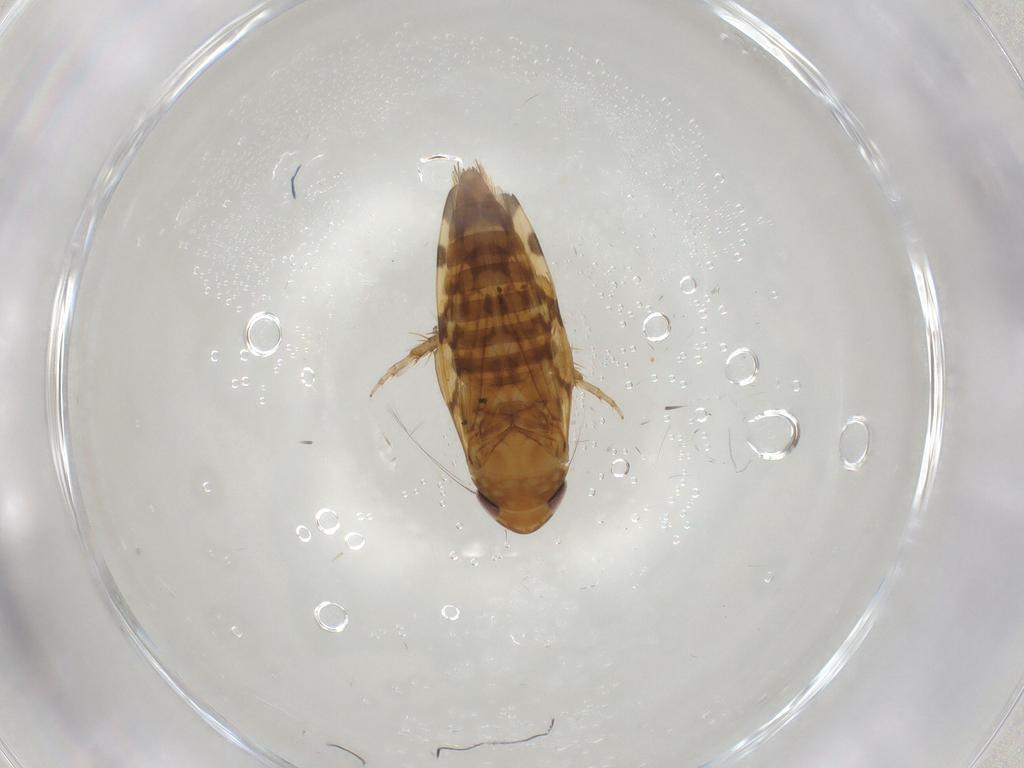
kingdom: Animalia
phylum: Arthropoda
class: Insecta
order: Hemiptera
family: Cicadellidae
